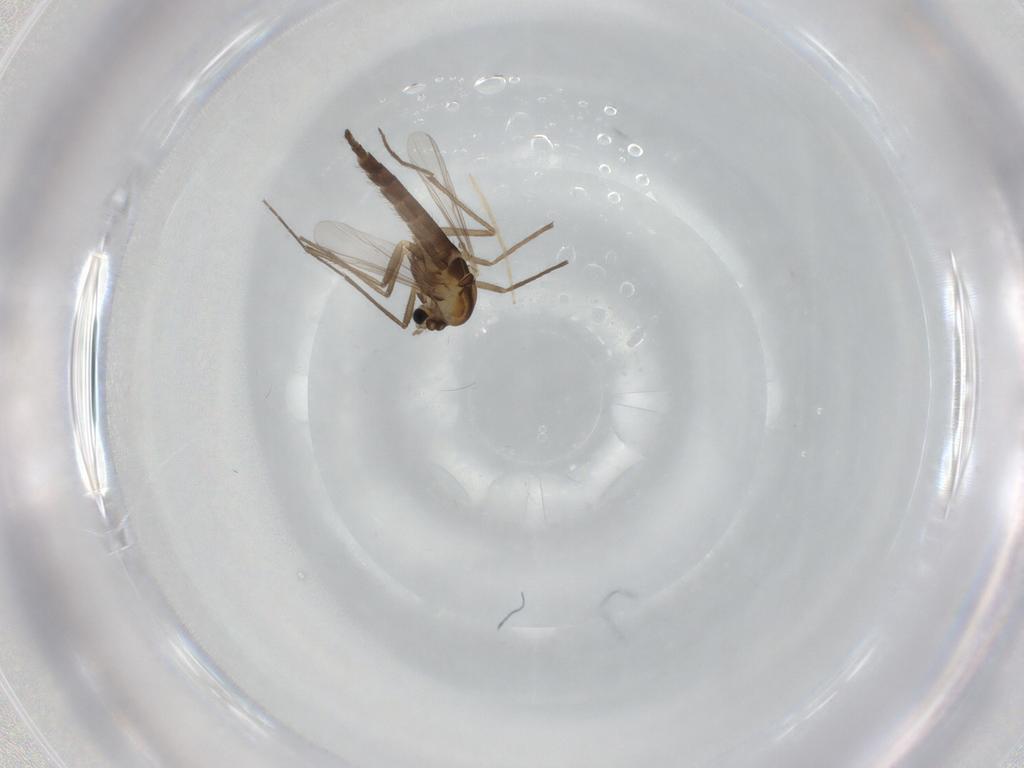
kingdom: Animalia
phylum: Arthropoda
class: Insecta
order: Diptera
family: Chironomidae
